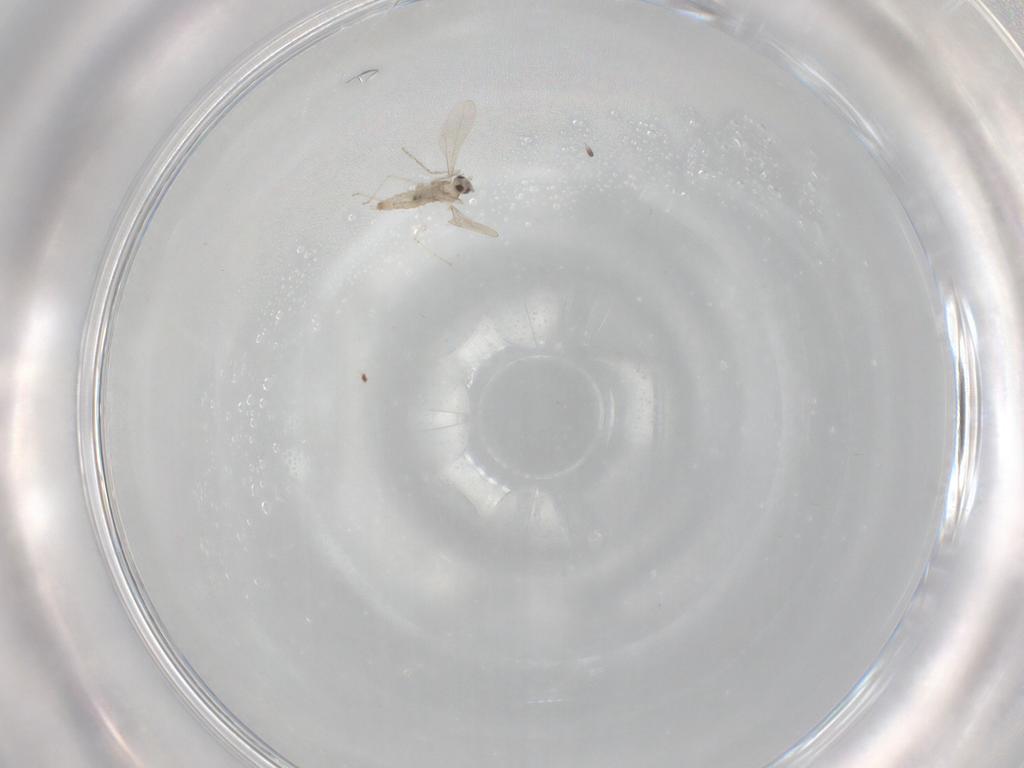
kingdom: Animalia
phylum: Arthropoda
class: Insecta
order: Diptera
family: Cecidomyiidae
